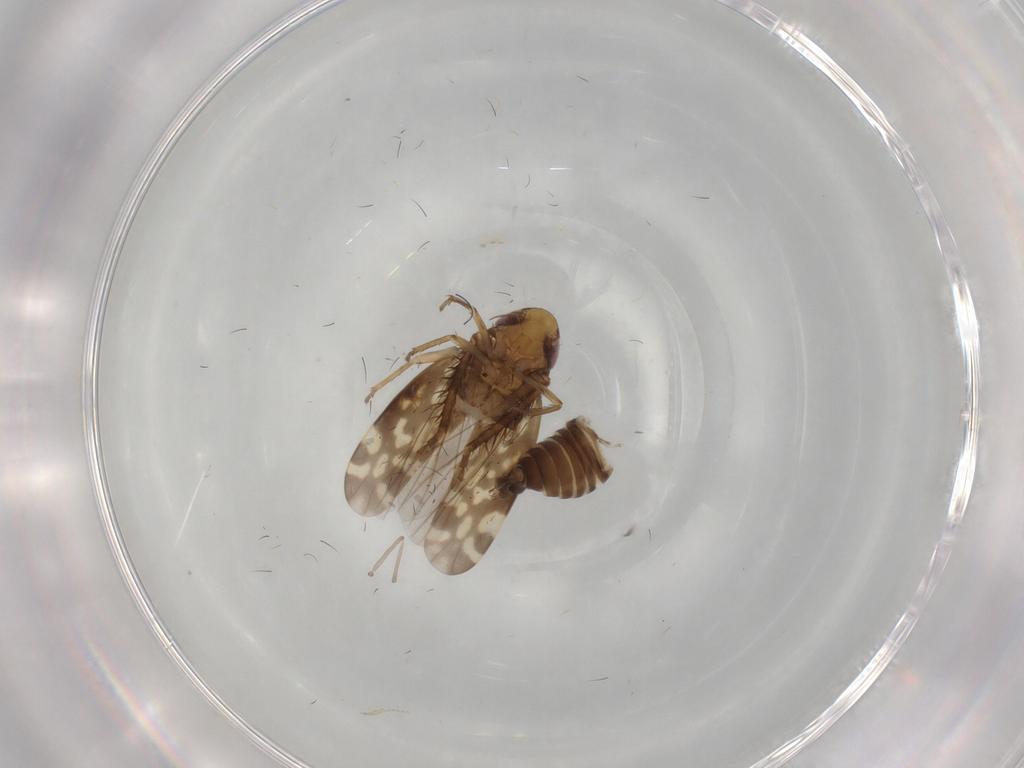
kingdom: Animalia
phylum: Arthropoda
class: Insecta
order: Hemiptera
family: Cicadellidae
